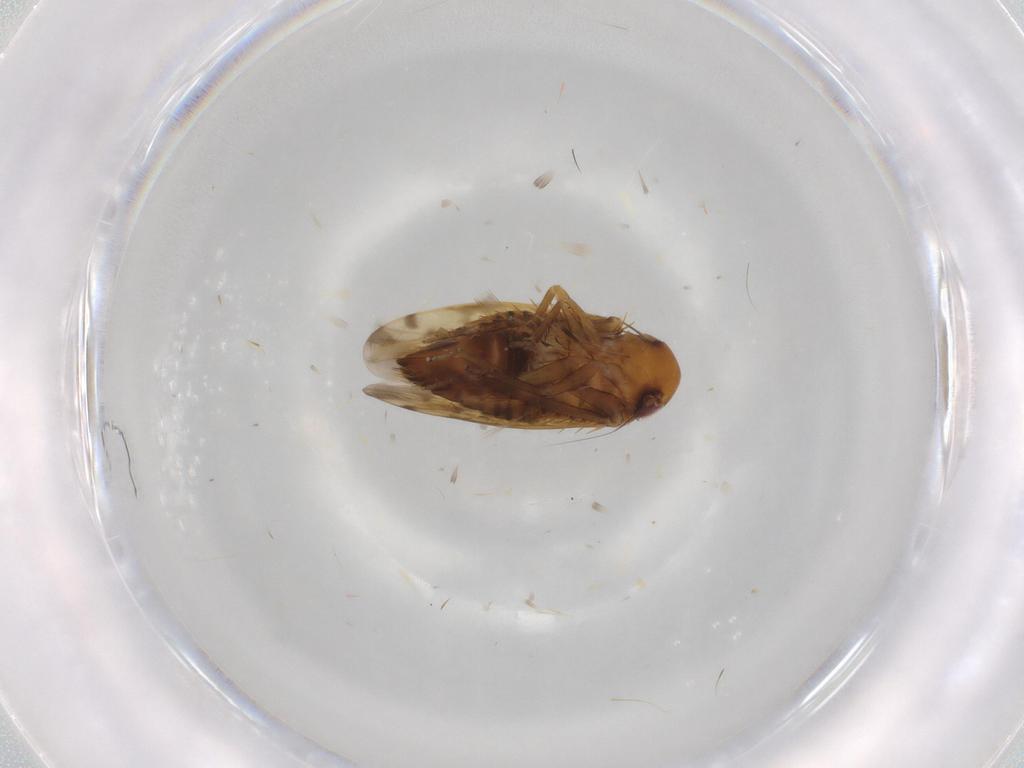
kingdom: Animalia
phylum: Arthropoda
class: Insecta
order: Hemiptera
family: Cicadellidae
